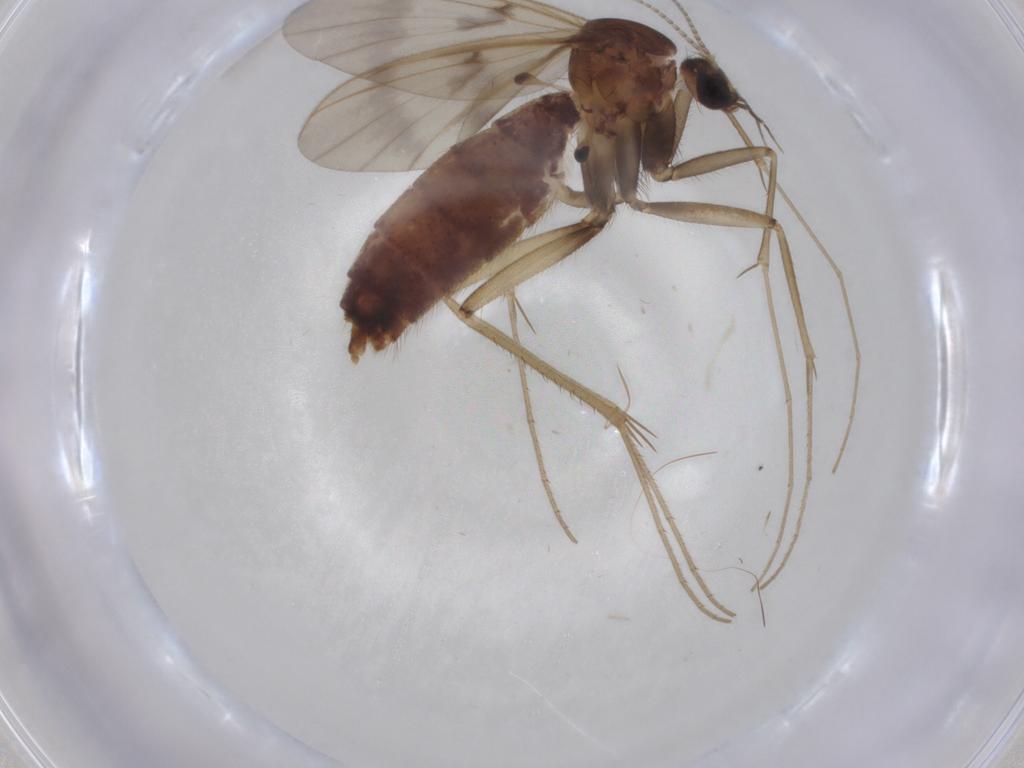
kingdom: Animalia
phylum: Arthropoda
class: Insecta
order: Diptera
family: Mycetophilidae
